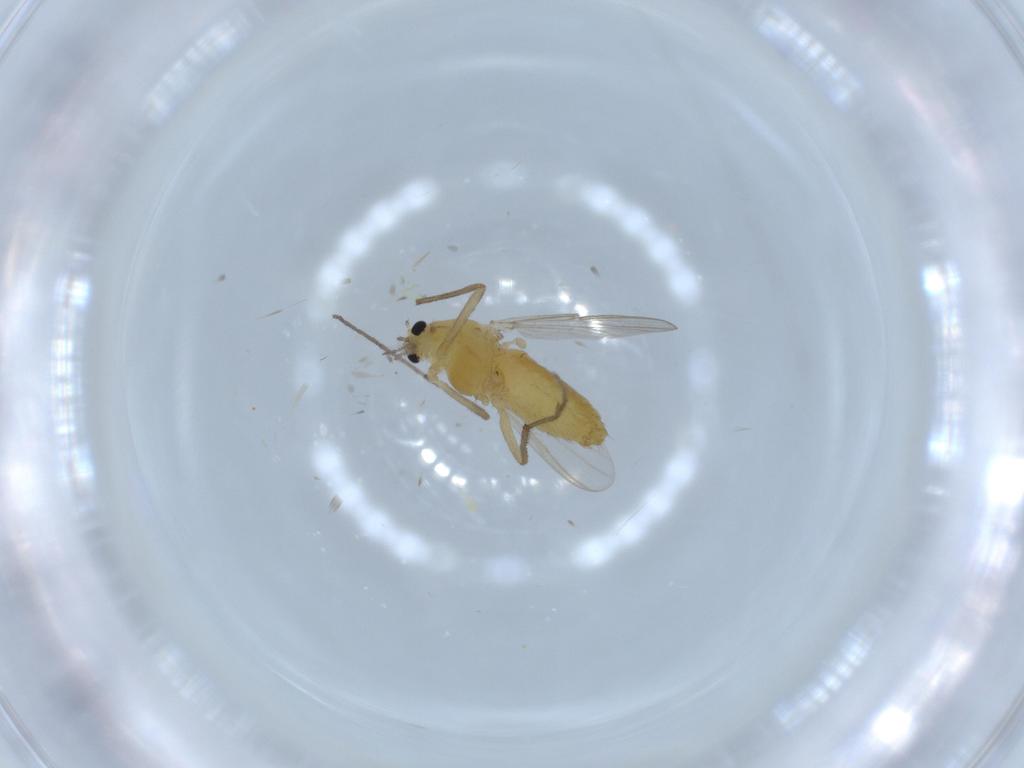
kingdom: Animalia
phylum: Arthropoda
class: Insecta
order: Diptera
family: Chironomidae
